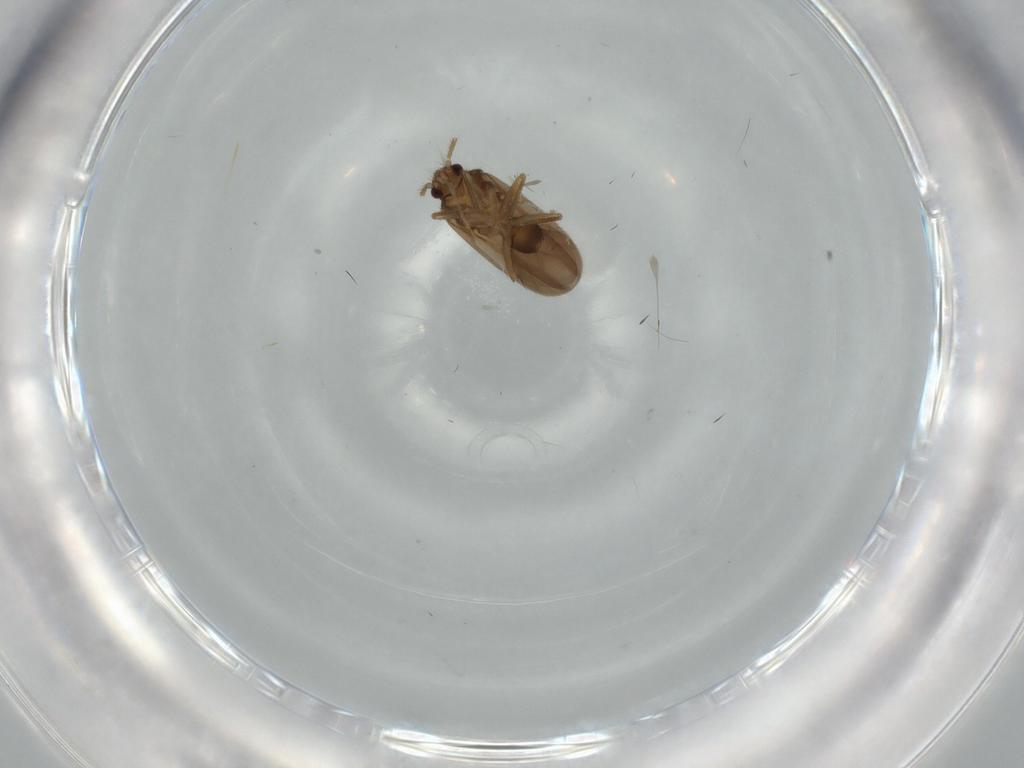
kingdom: Animalia
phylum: Arthropoda
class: Insecta
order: Hemiptera
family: Ceratocombidae
